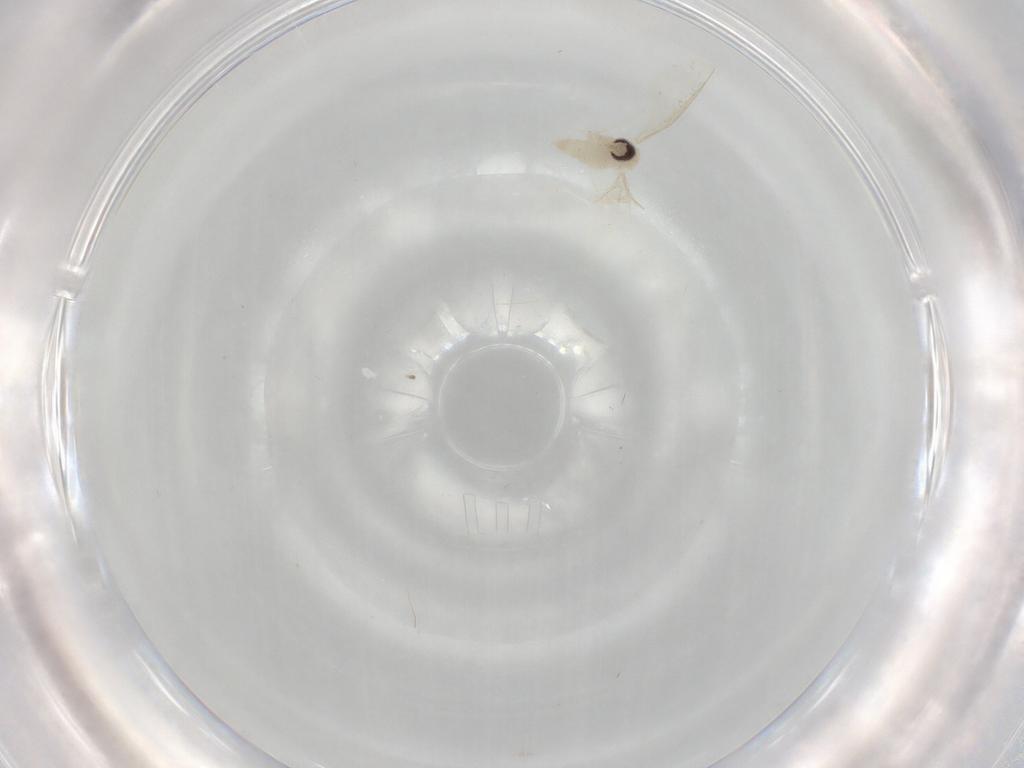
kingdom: Animalia
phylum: Arthropoda
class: Insecta
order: Diptera
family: Cecidomyiidae
